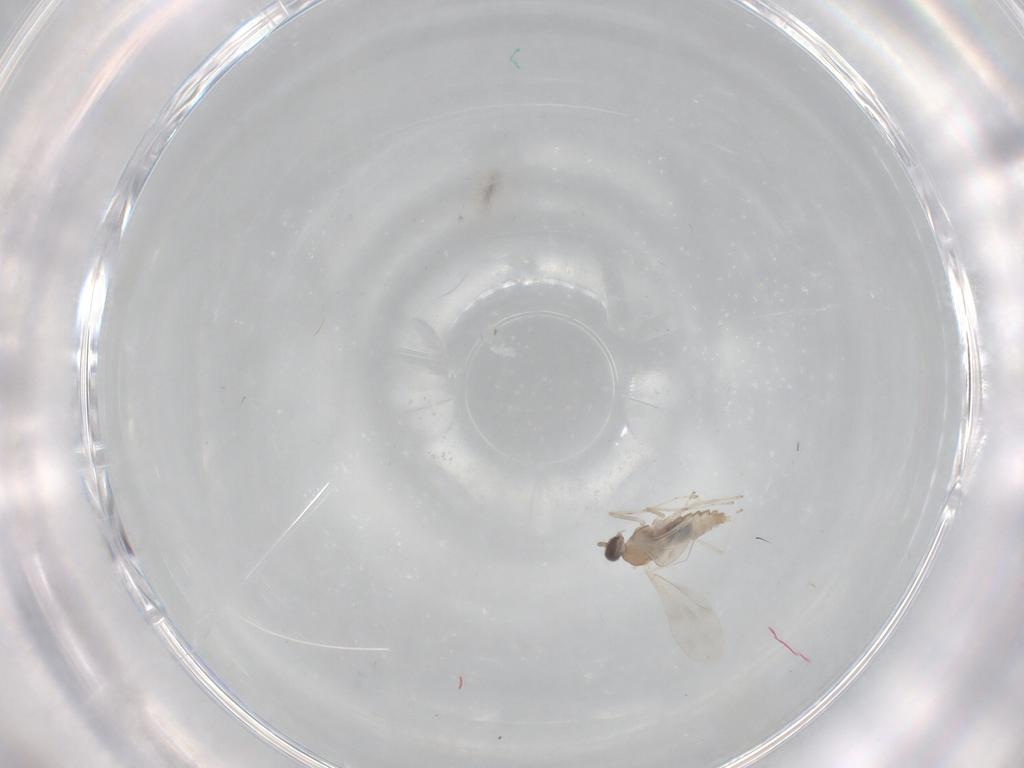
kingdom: Animalia
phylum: Arthropoda
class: Insecta
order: Diptera
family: Cecidomyiidae
